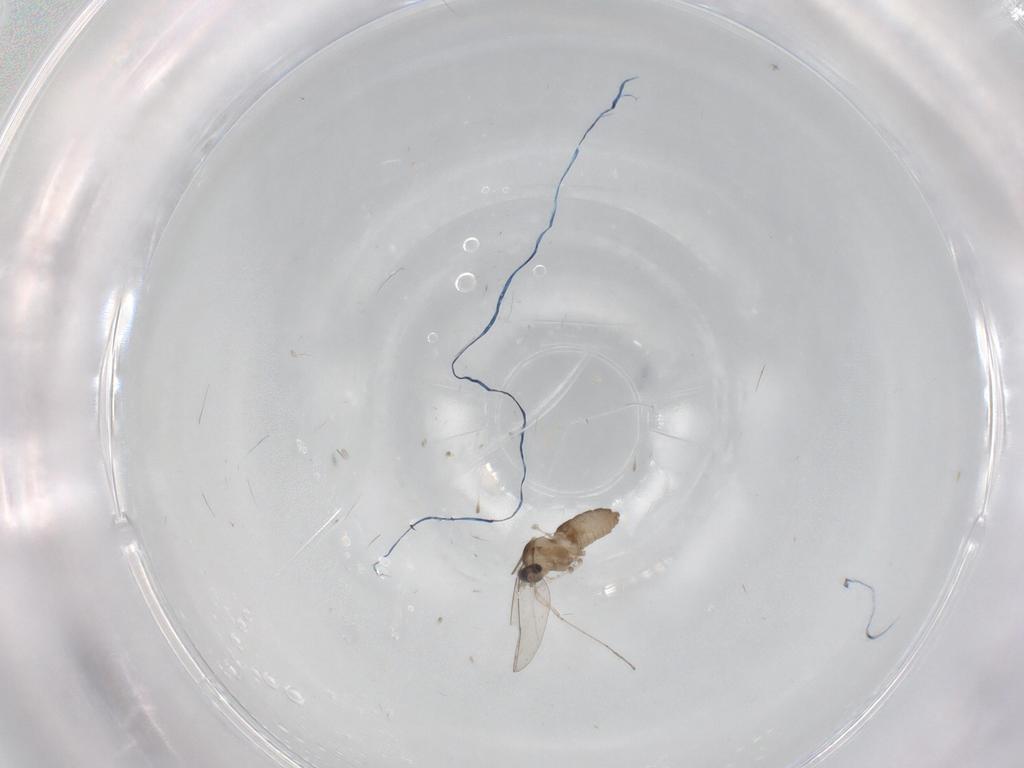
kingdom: Animalia
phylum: Arthropoda
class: Insecta
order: Diptera
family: Cecidomyiidae
